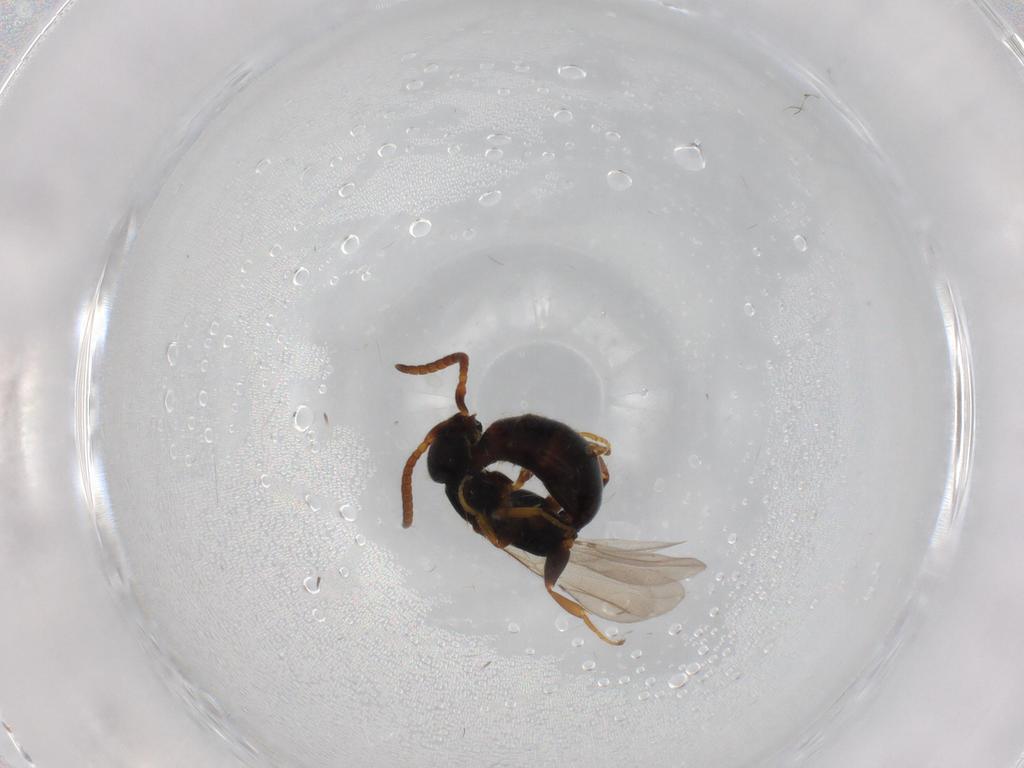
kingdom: Animalia
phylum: Arthropoda
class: Insecta
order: Hymenoptera
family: Bethylidae
